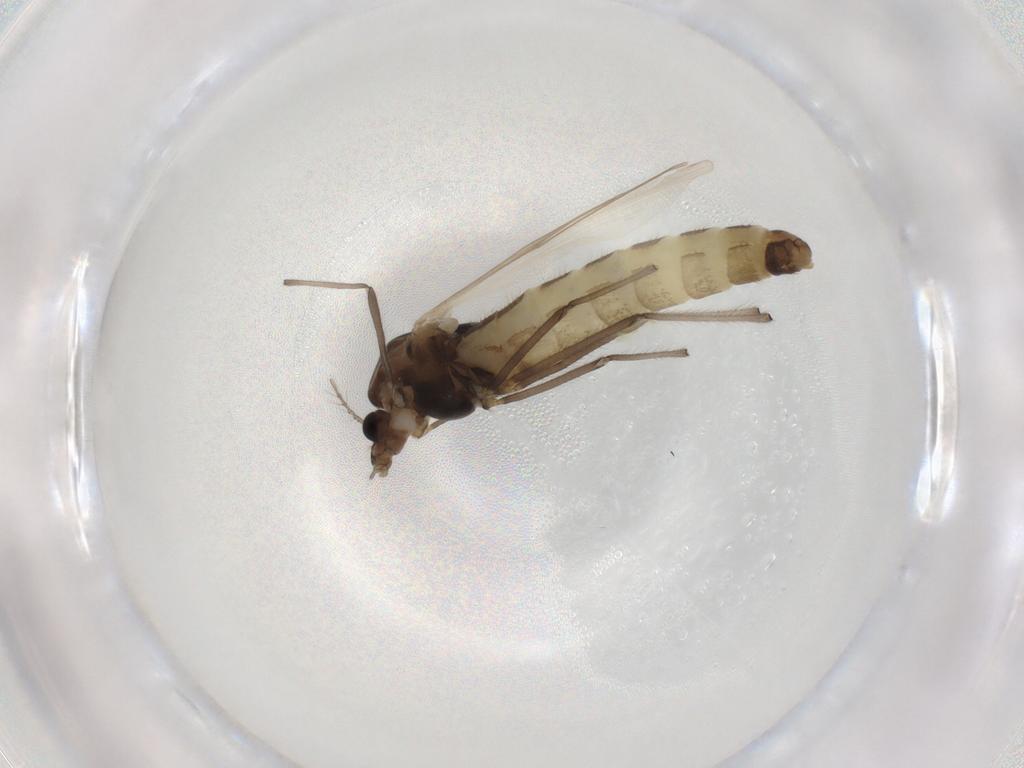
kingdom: Animalia
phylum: Arthropoda
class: Insecta
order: Diptera
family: Chironomidae
